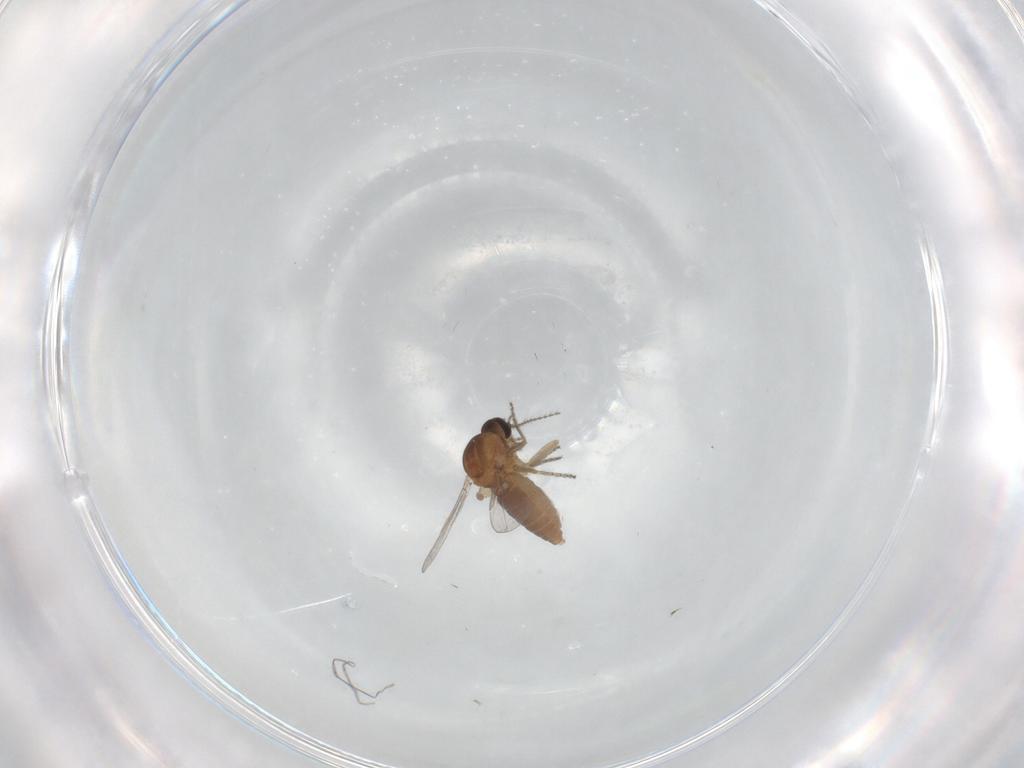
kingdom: Animalia
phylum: Arthropoda
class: Insecta
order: Diptera
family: Ceratopogonidae
